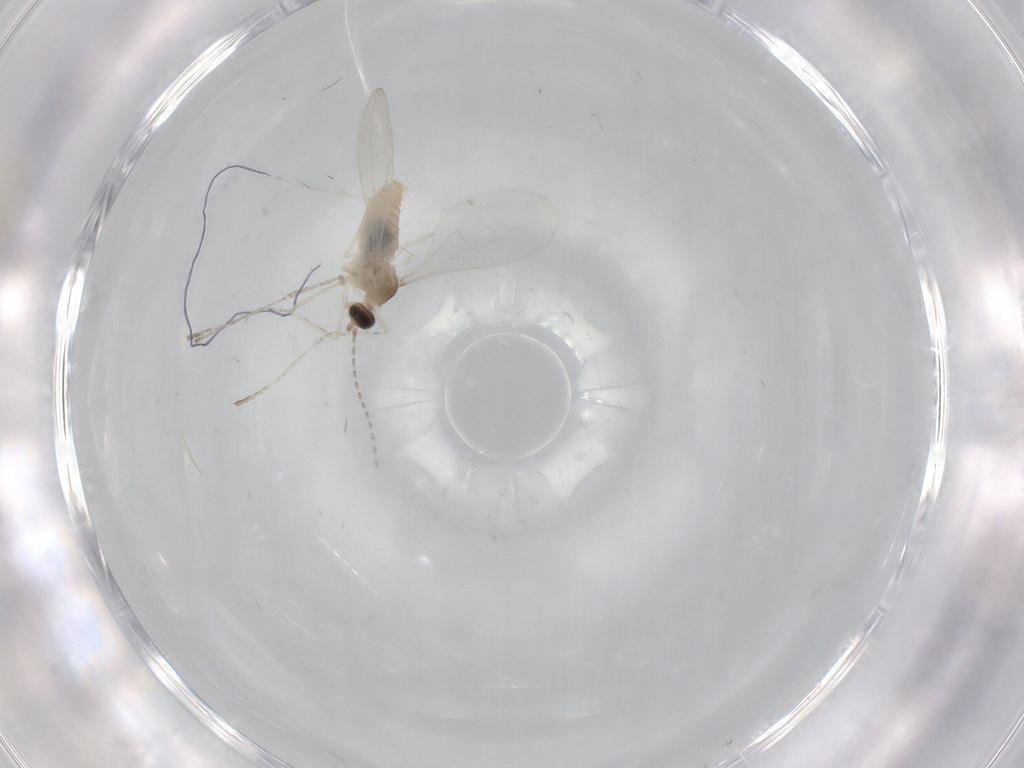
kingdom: Animalia
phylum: Arthropoda
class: Insecta
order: Diptera
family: Cecidomyiidae
